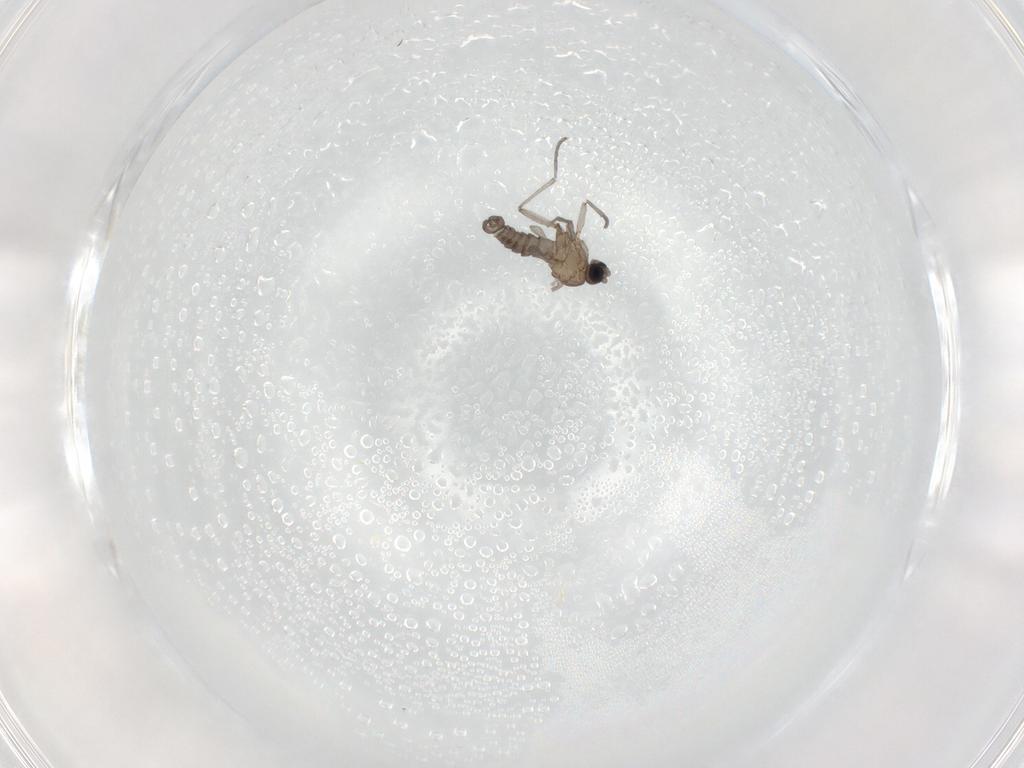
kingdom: Animalia
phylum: Arthropoda
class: Insecta
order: Diptera
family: Sciaridae
